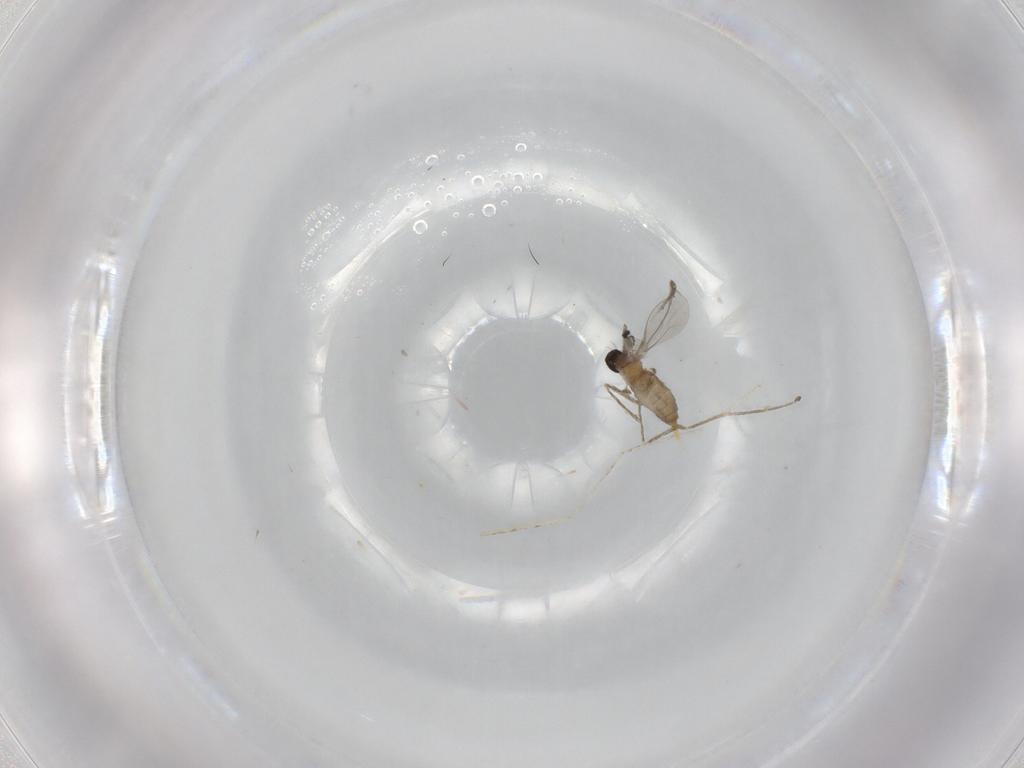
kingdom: Animalia
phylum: Arthropoda
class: Insecta
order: Diptera
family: Cecidomyiidae
